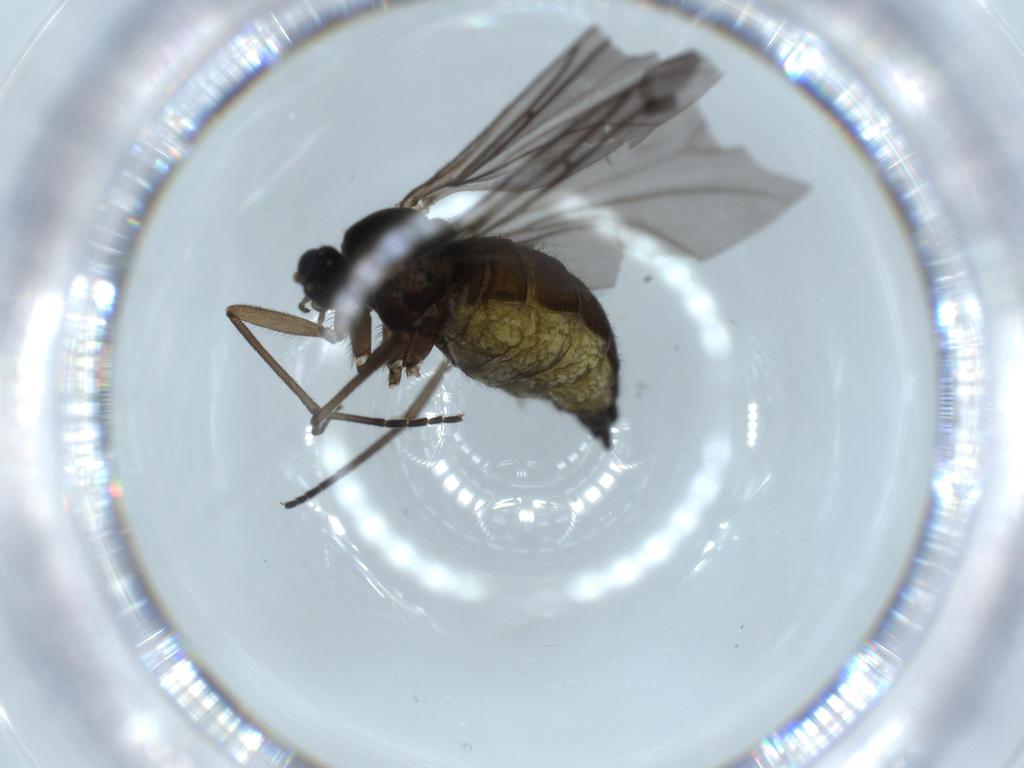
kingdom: Animalia
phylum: Arthropoda
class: Insecta
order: Diptera
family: Sciaridae
